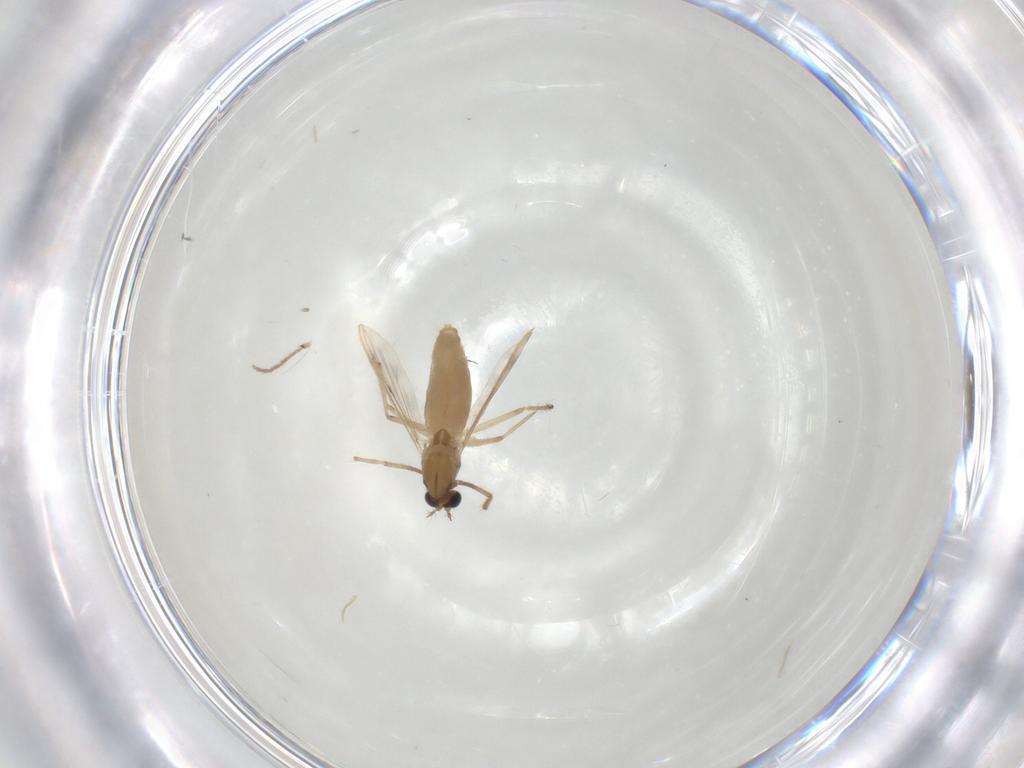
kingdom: Animalia
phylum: Arthropoda
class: Insecta
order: Diptera
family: Chironomidae
